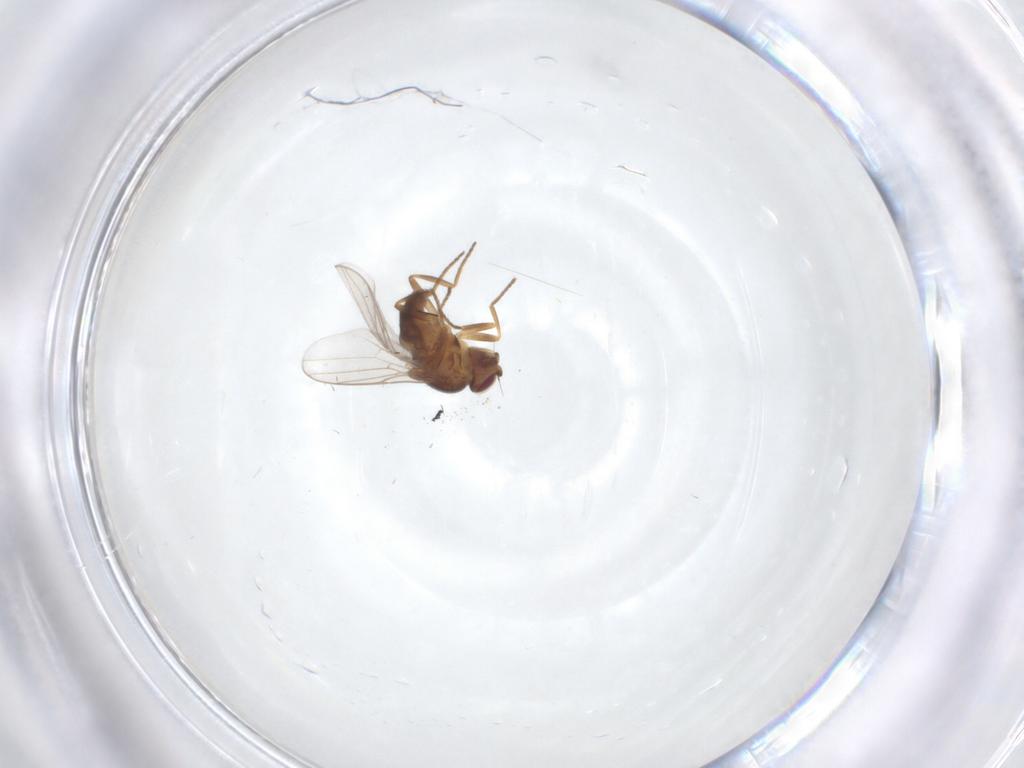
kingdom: Animalia
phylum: Arthropoda
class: Insecta
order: Diptera
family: Chloropidae
